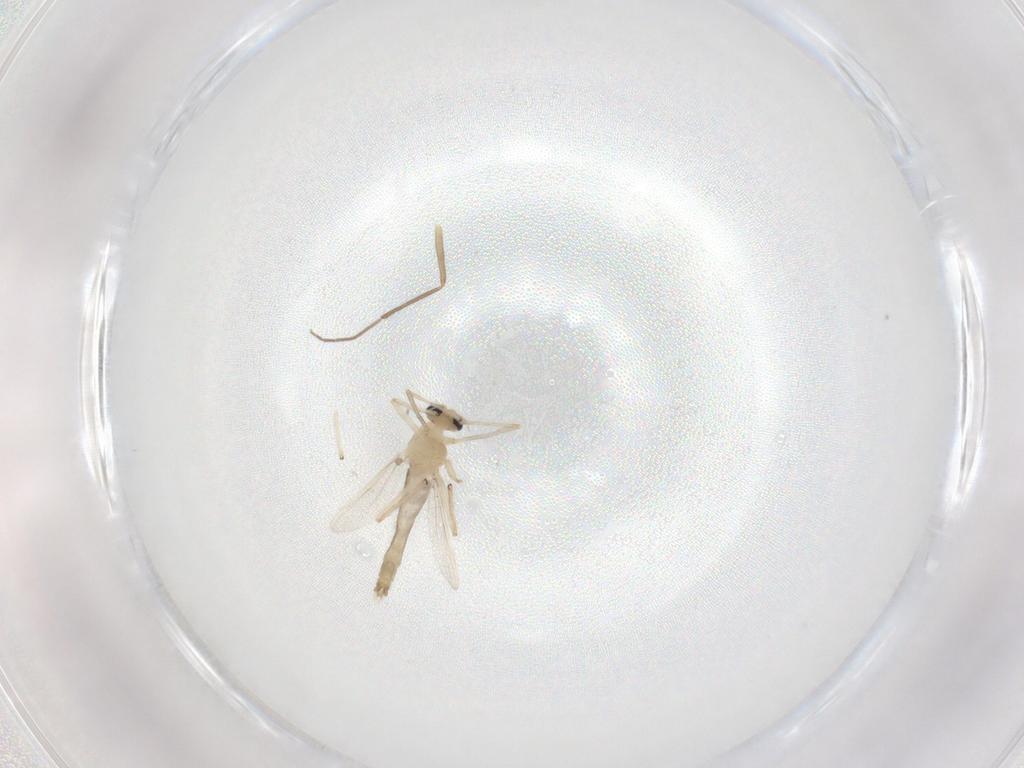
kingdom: Animalia
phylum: Arthropoda
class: Insecta
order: Diptera
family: Chironomidae
